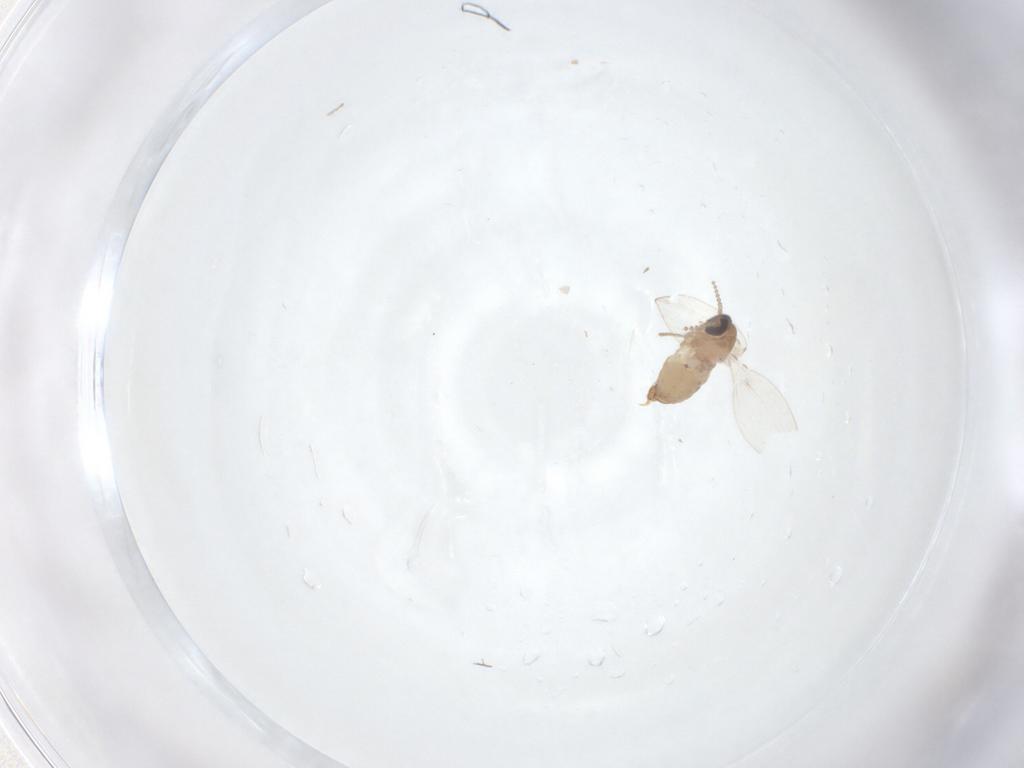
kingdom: Animalia
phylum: Arthropoda
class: Insecta
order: Diptera
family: Psychodidae
